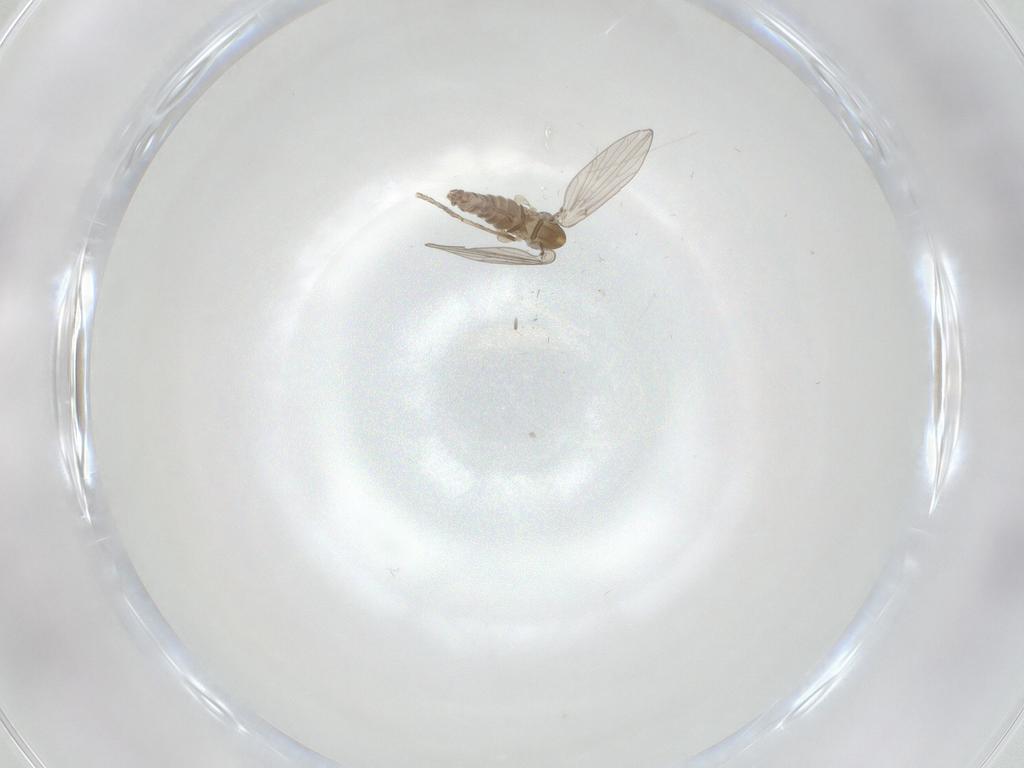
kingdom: Animalia
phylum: Arthropoda
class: Insecta
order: Diptera
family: Psychodidae
